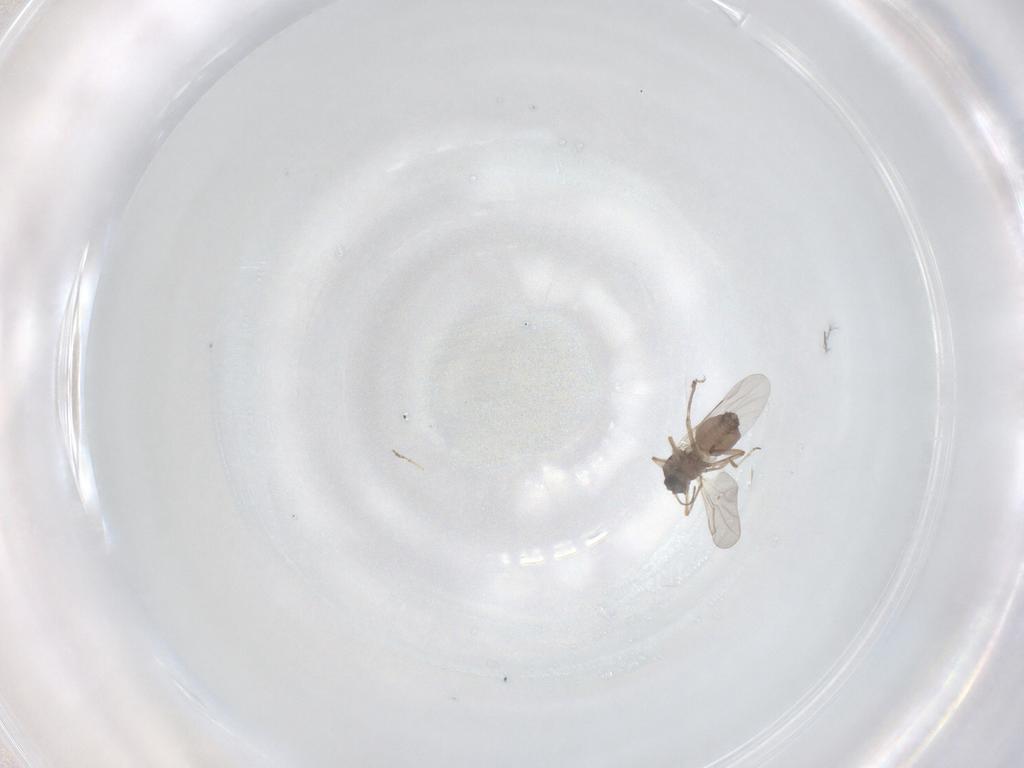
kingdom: Animalia
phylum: Arthropoda
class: Insecta
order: Diptera
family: Ceratopogonidae
